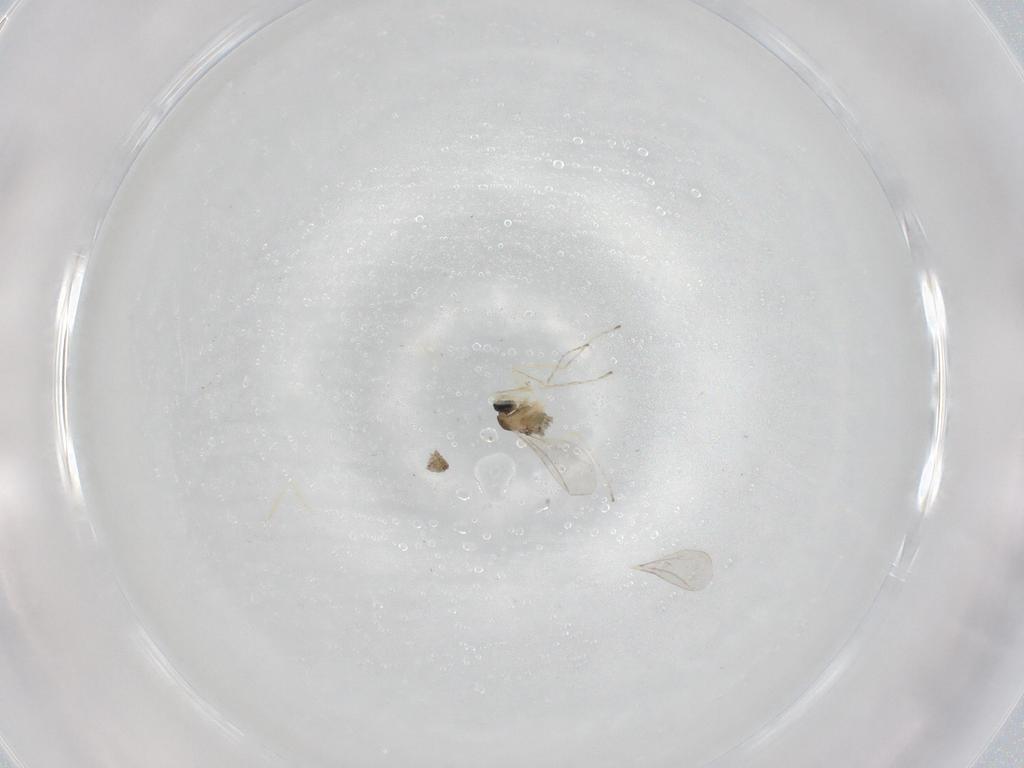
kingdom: Animalia
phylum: Arthropoda
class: Insecta
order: Diptera
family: Cecidomyiidae
